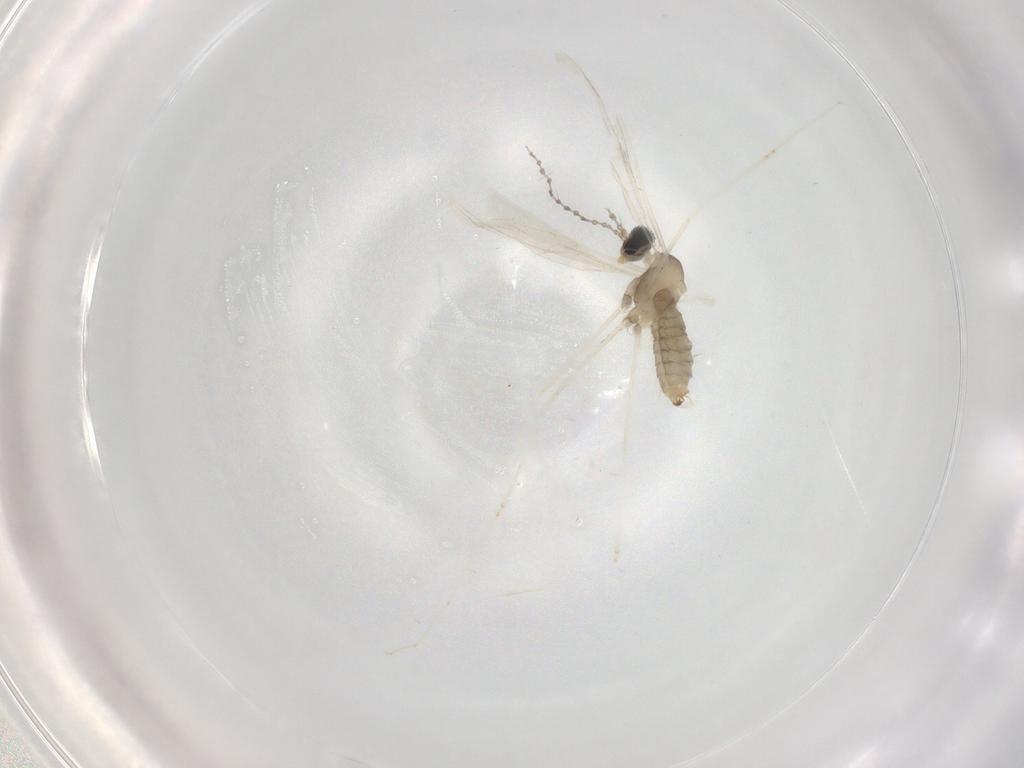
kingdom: Animalia
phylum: Arthropoda
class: Insecta
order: Diptera
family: Cecidomyiidae
